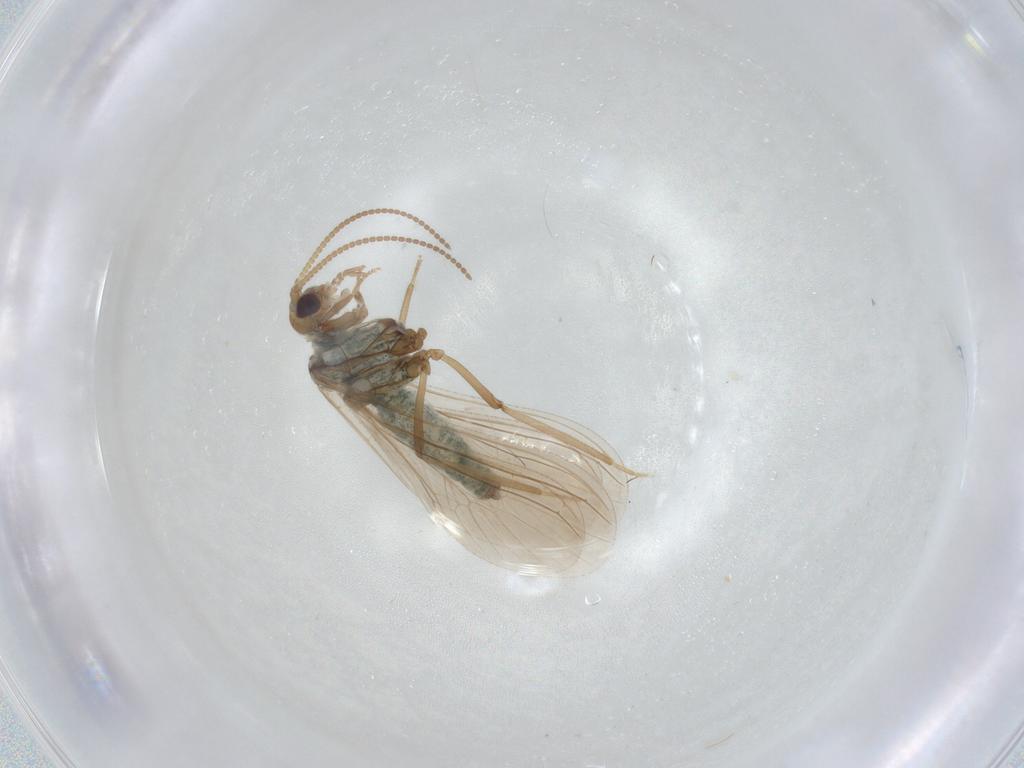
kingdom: Animalia
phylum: Arthropoda
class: Insecta
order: Neuroptera
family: Coniopterygidae
